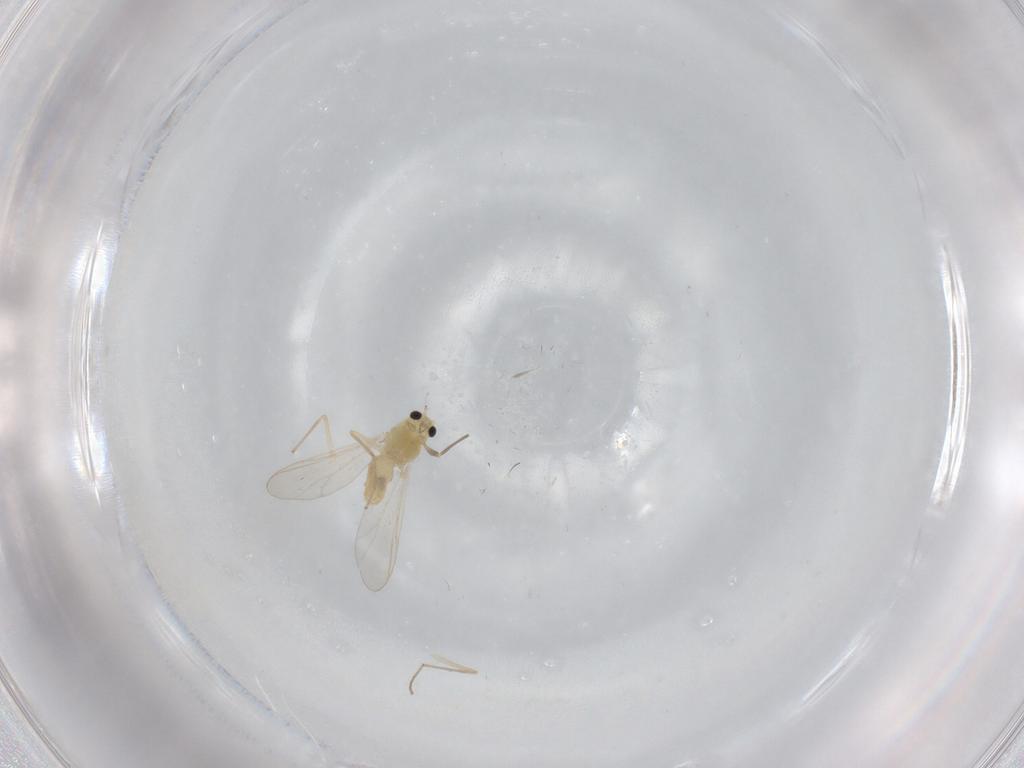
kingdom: Animalia
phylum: Arthropoda
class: Insecta
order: Diptera
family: Chironomidae
